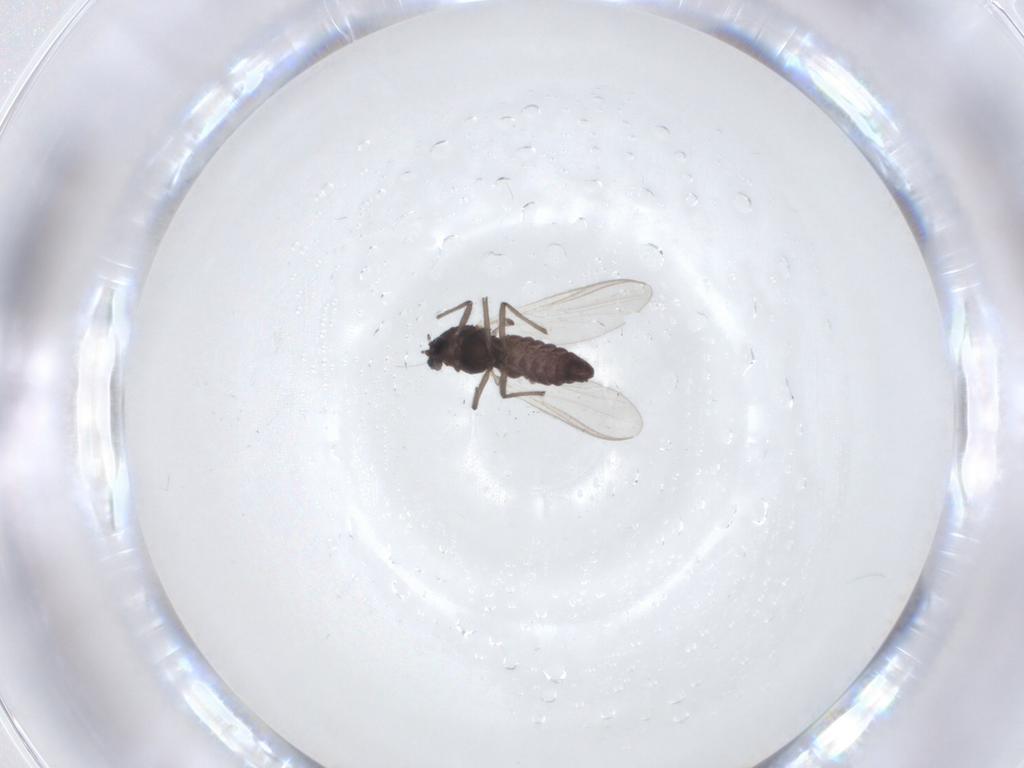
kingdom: Animalia
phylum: Arthropoda
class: Insecta
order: Diptera
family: Chironomidae
